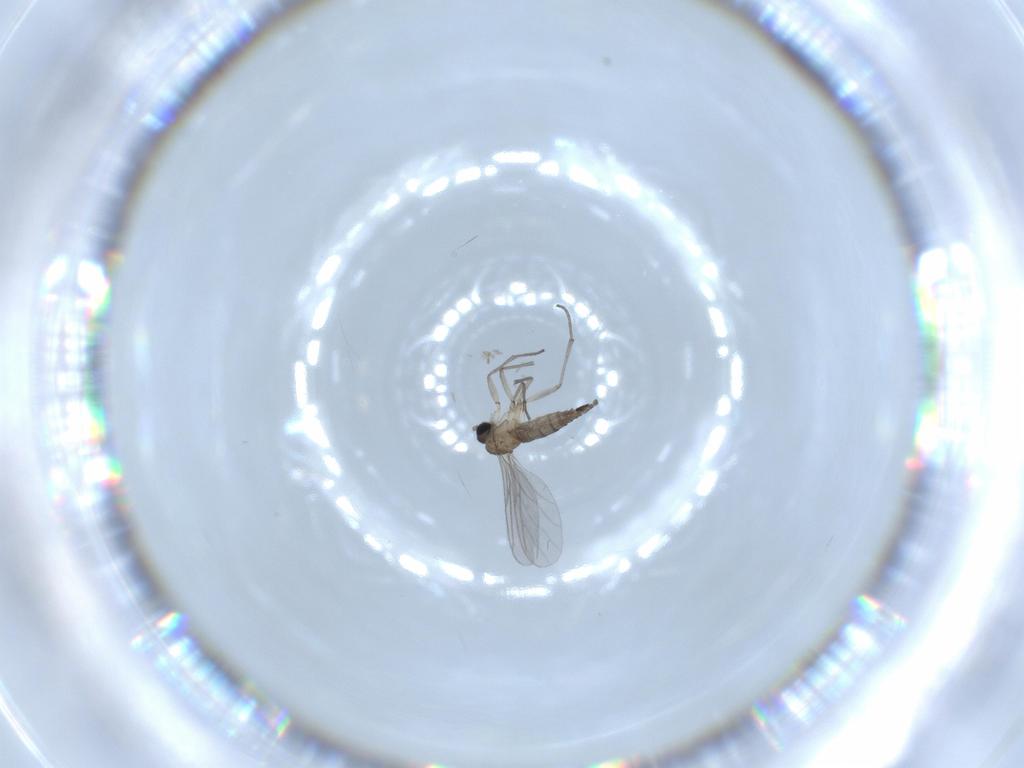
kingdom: Animalia
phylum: Arthropoda
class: Insecta
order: Diptera
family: Sciaridae
